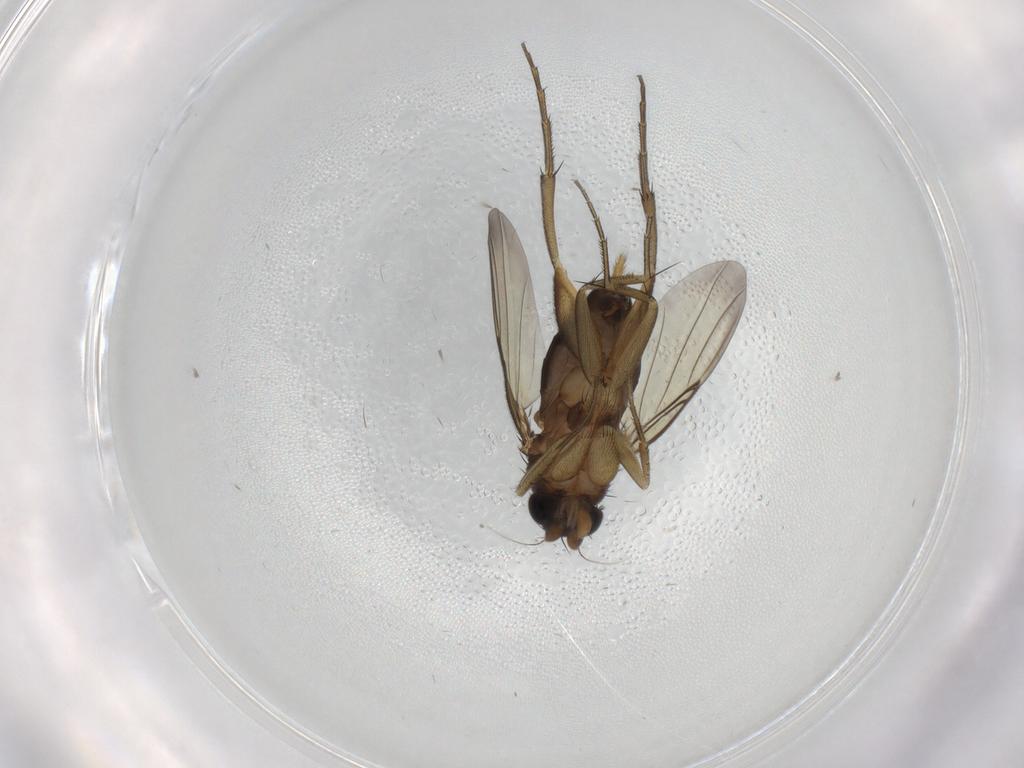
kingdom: Animalia
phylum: Arthropoda
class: Insecta
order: Diptera
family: Phoridae
